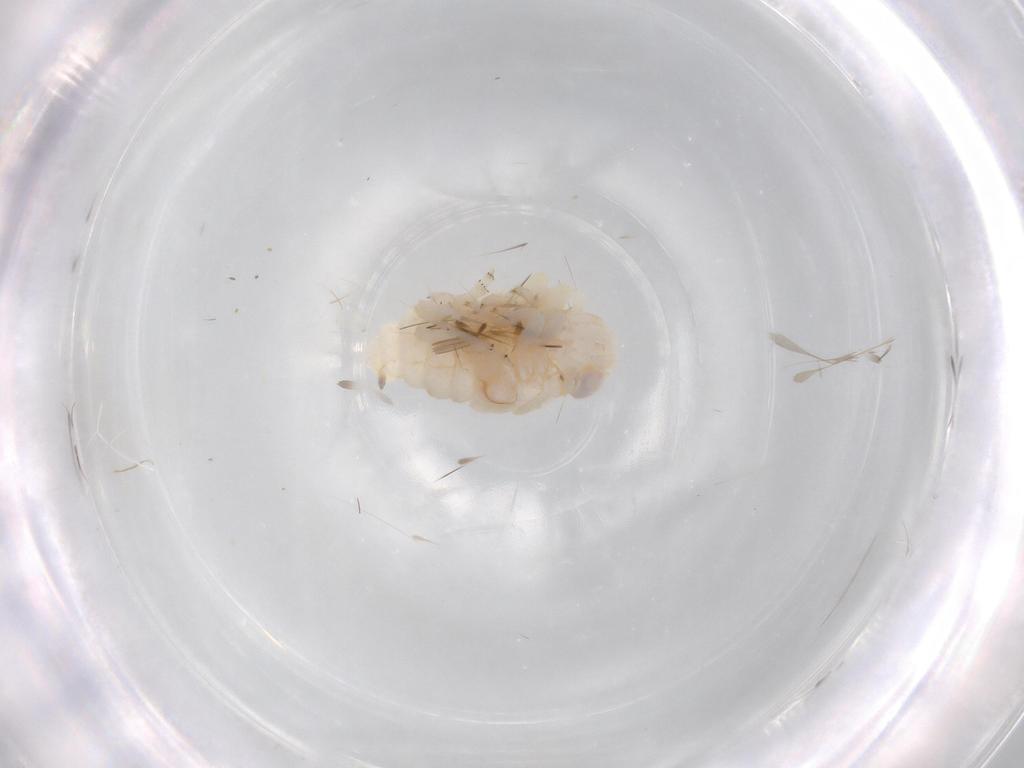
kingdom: Animalia
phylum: Arthropoda
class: Insecta
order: Hemiptera
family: Nogodinidae
